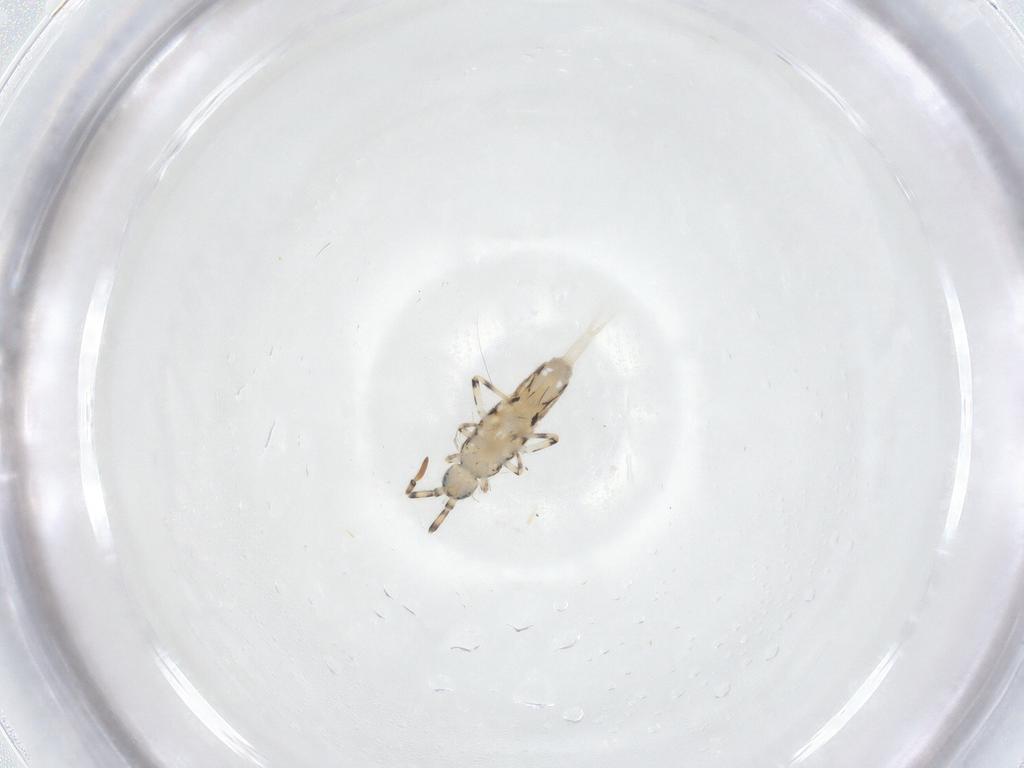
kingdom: Animalia
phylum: Arthropoda
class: Collembola
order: Entomobryomorpha
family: Entomobryidae
